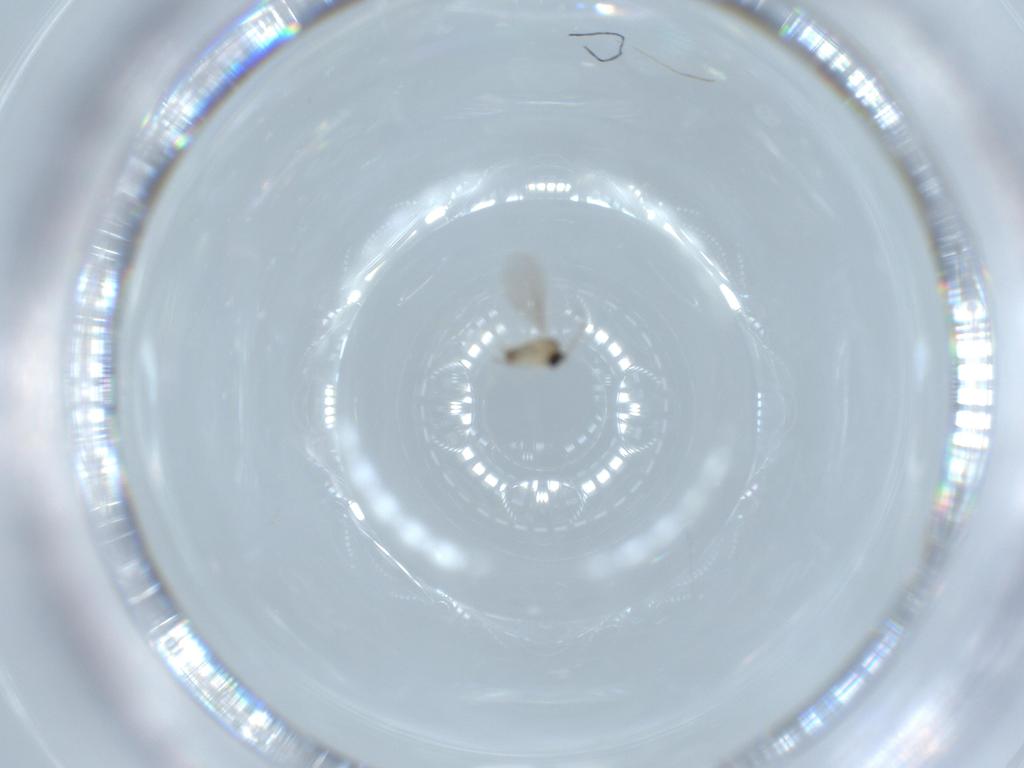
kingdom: Animalia
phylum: Arthropoda
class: Insecta
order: Diptera
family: Cecidomyiidae
